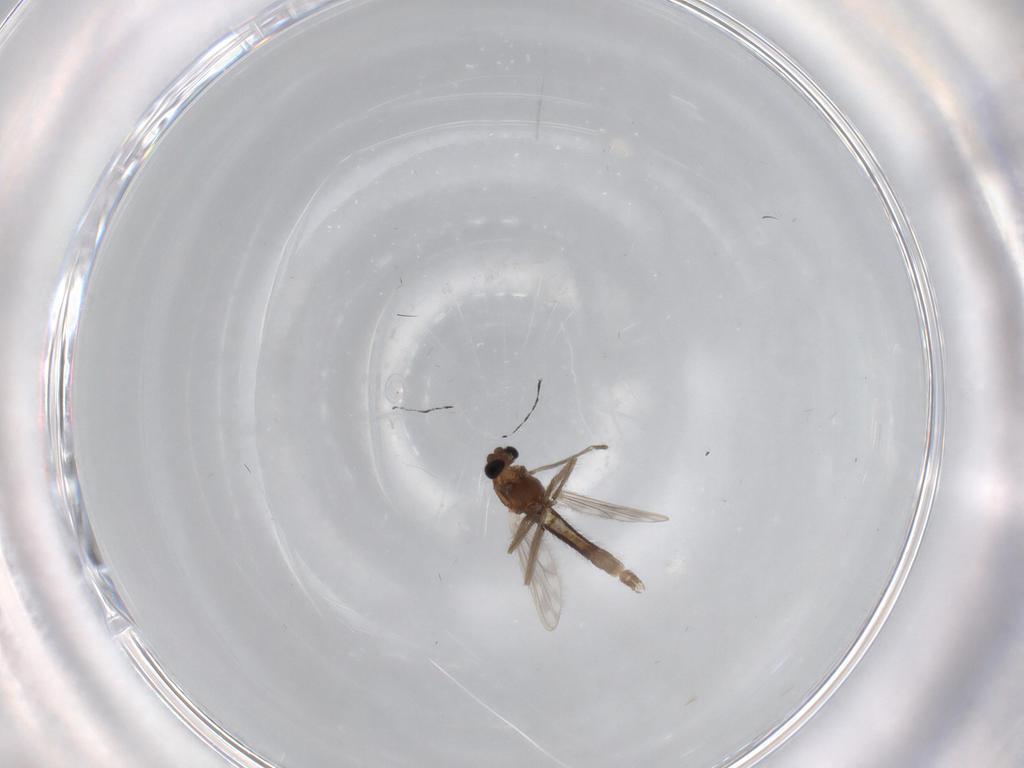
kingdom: Animalia
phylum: Arthropoda
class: Insecta
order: Diptera
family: Chironomidae
